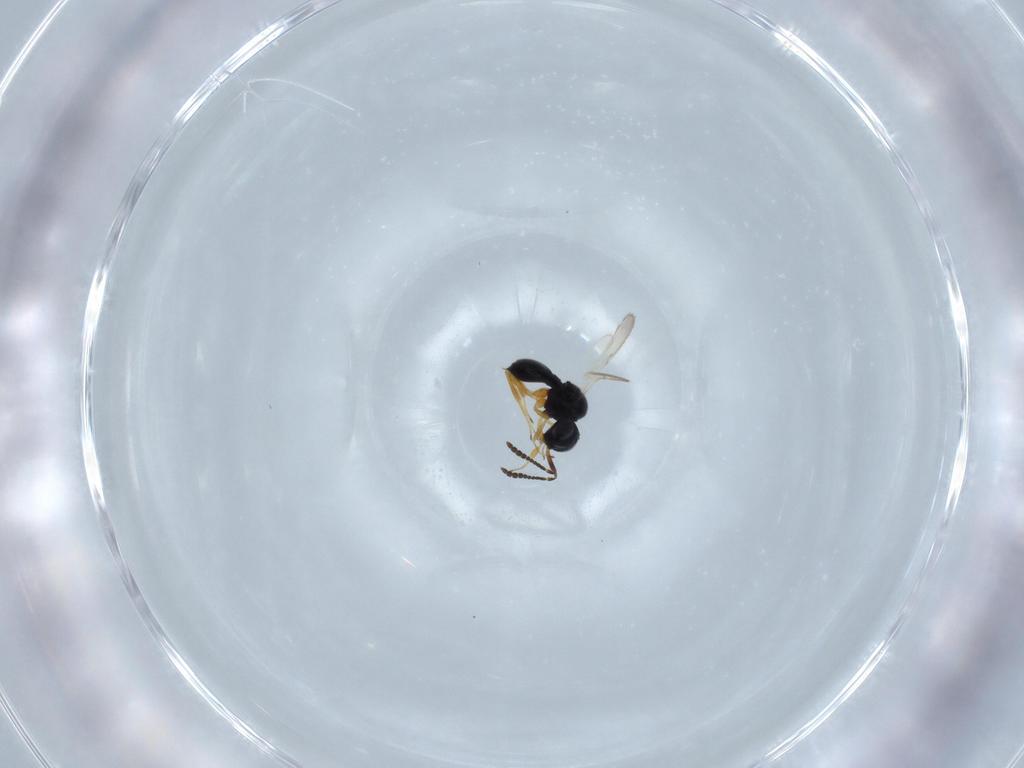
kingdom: Animalia
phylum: Arthropoda
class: Insecta
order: Hymenoptera
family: Scelionidae
